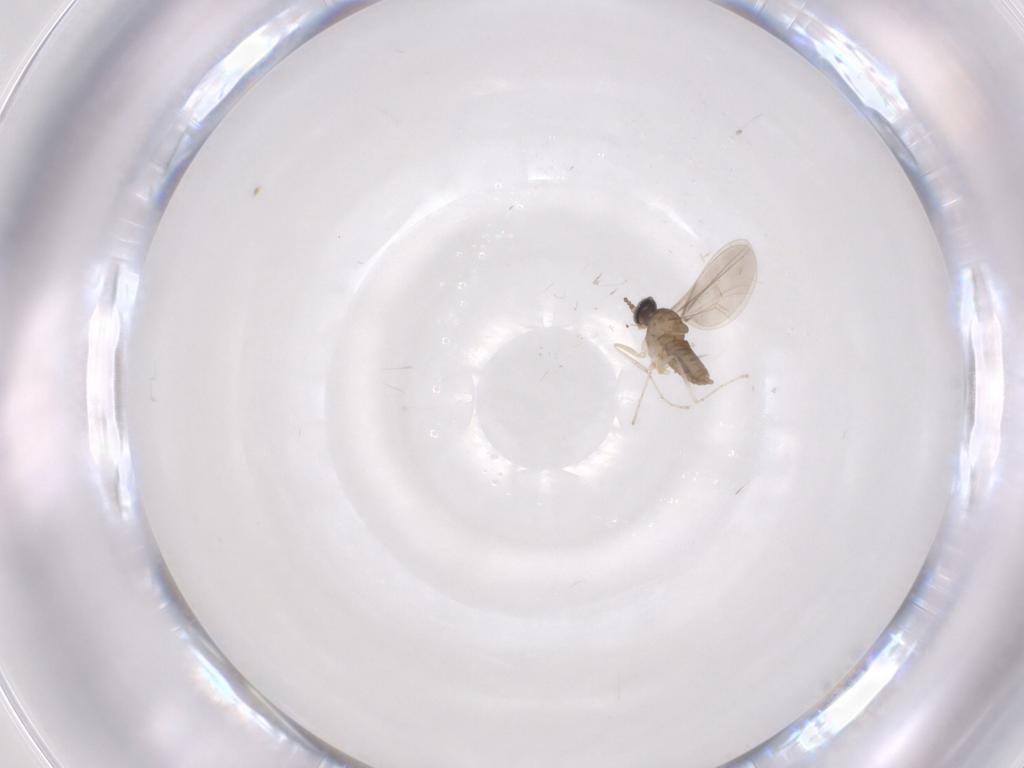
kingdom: Animalia
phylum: Arthropoda
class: Insecta
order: Diptera
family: Cecidomyiidae
